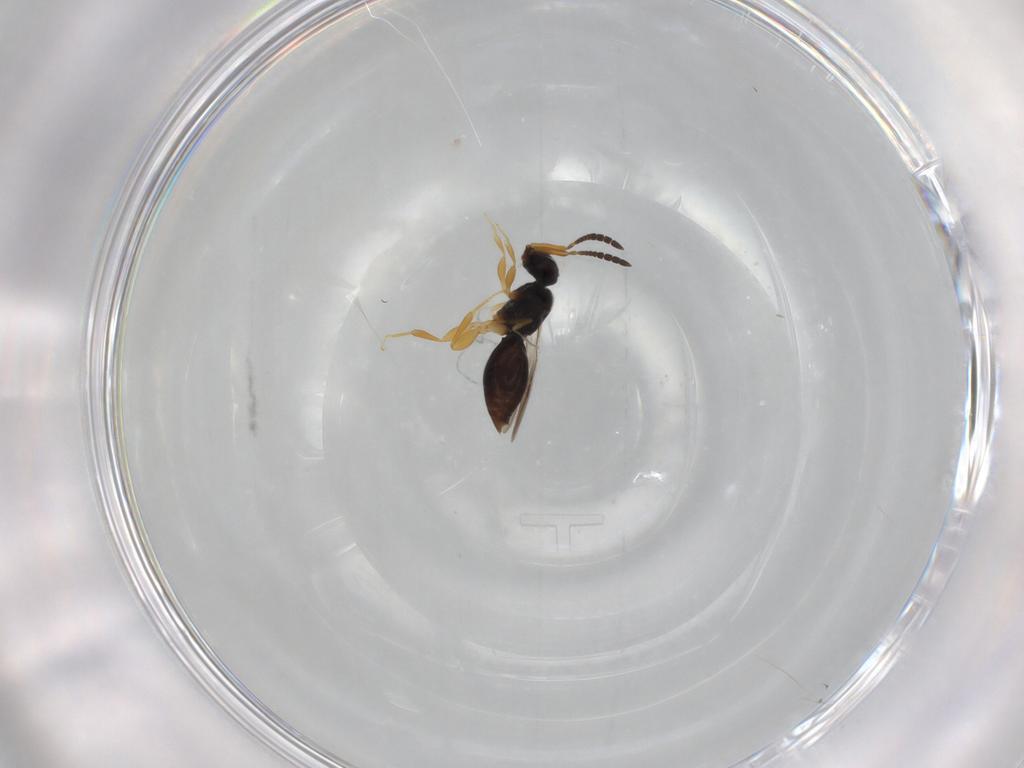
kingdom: Animalia
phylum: Arthropoda
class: Insecta
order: Hymenoptera
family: Ceraphronidae
